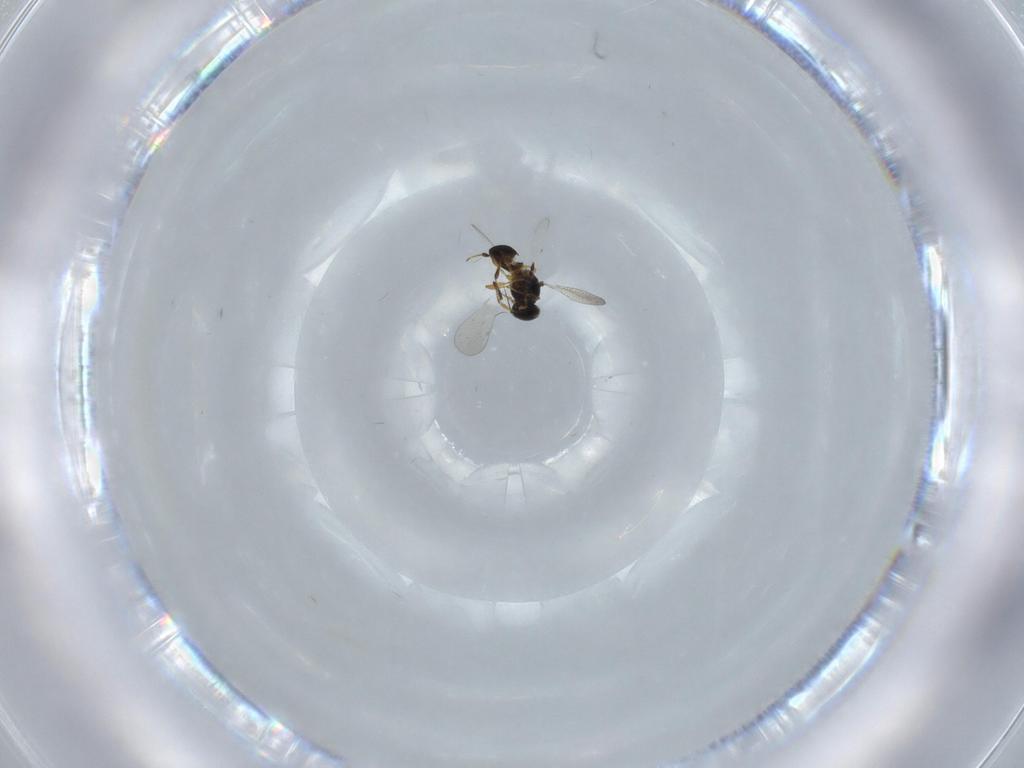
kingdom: Animalia
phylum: Arthropoda
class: Insecta
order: Hymenoptera
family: Platygastridae
